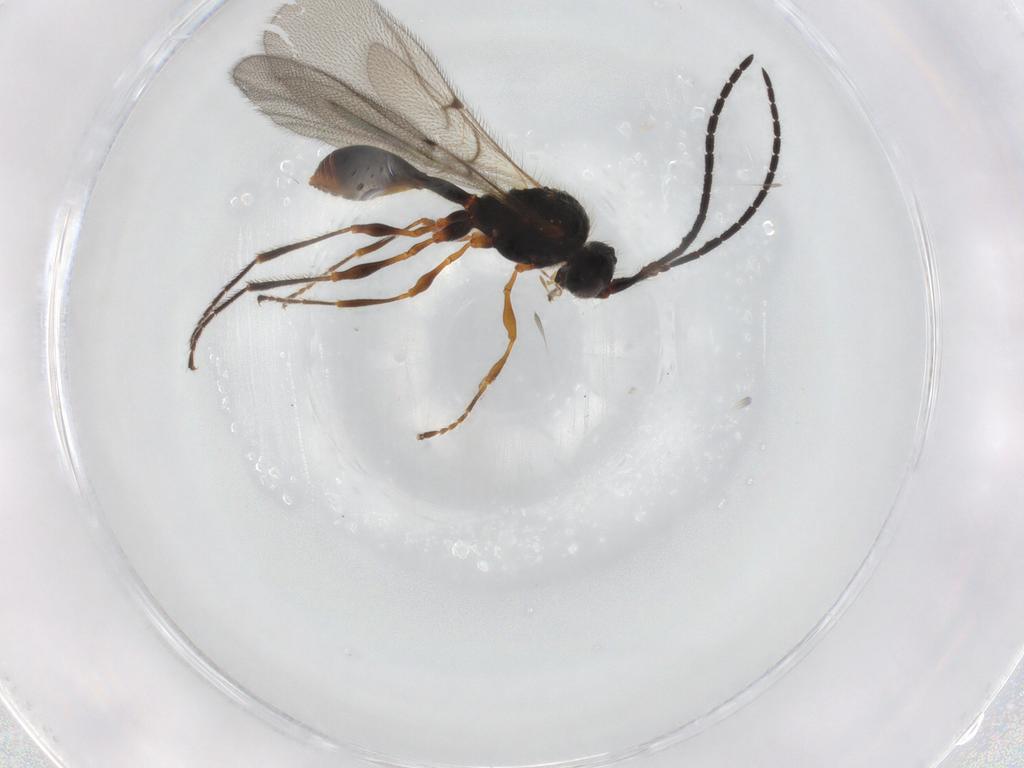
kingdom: Animalia
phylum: Arthropoda
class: Insecta
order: Hymenoptera
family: Diapriidae
